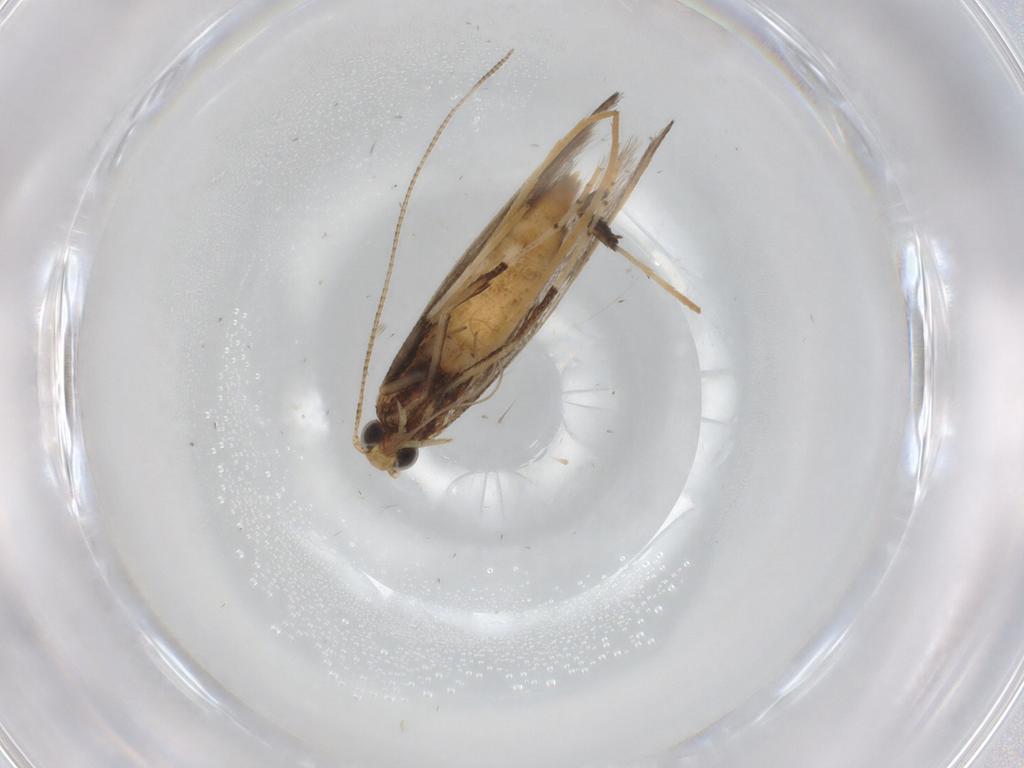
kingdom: Animalia
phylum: Arthropoda
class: Insecta
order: Lepidoptera
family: Gracillariidae
